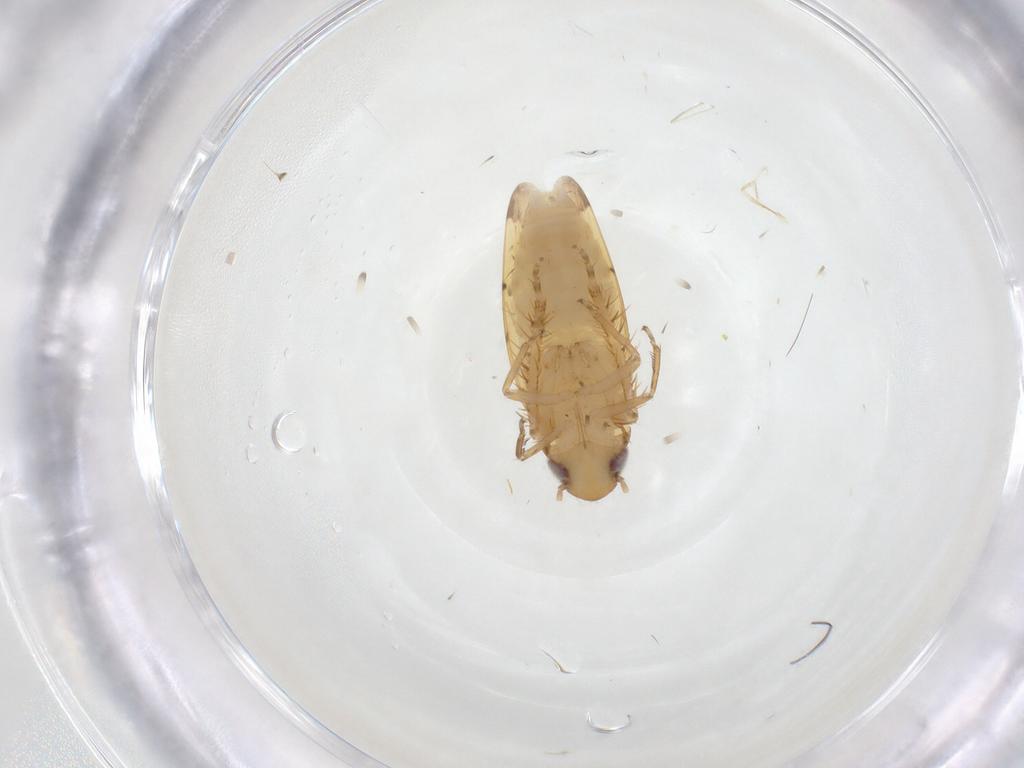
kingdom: Animalia
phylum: Arthropoda
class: Insecta
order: Hemiptera
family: Cicadellidae
